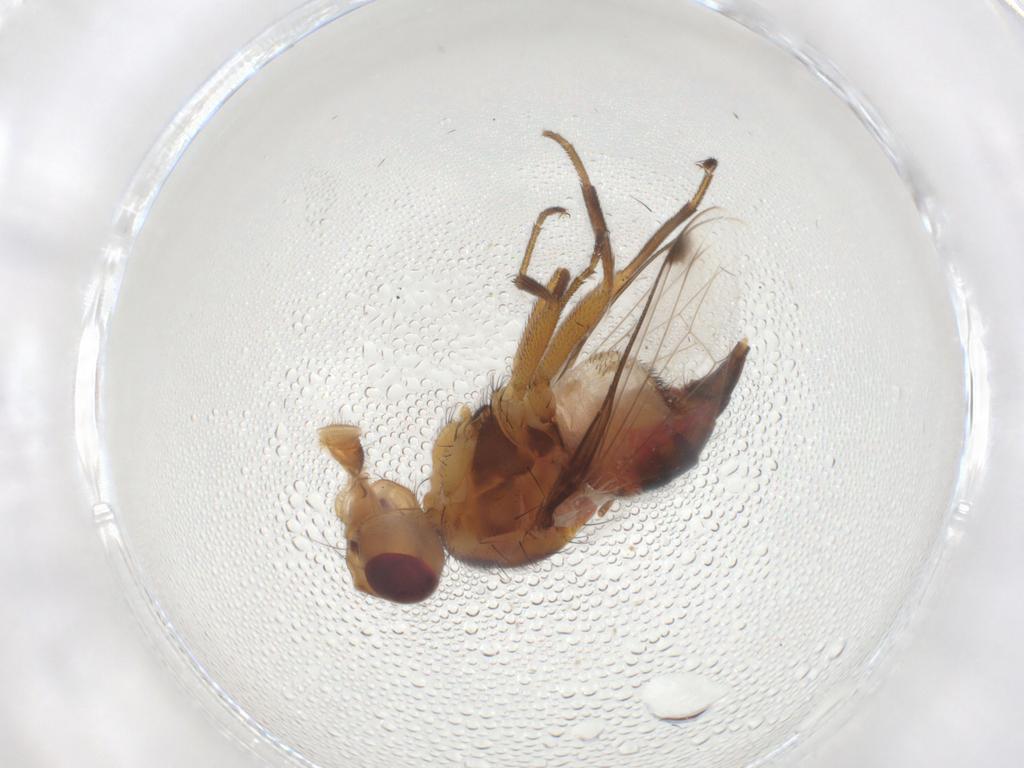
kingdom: Animalia
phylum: Arthropoda
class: Insecta
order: Diptera
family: Richardiidae
